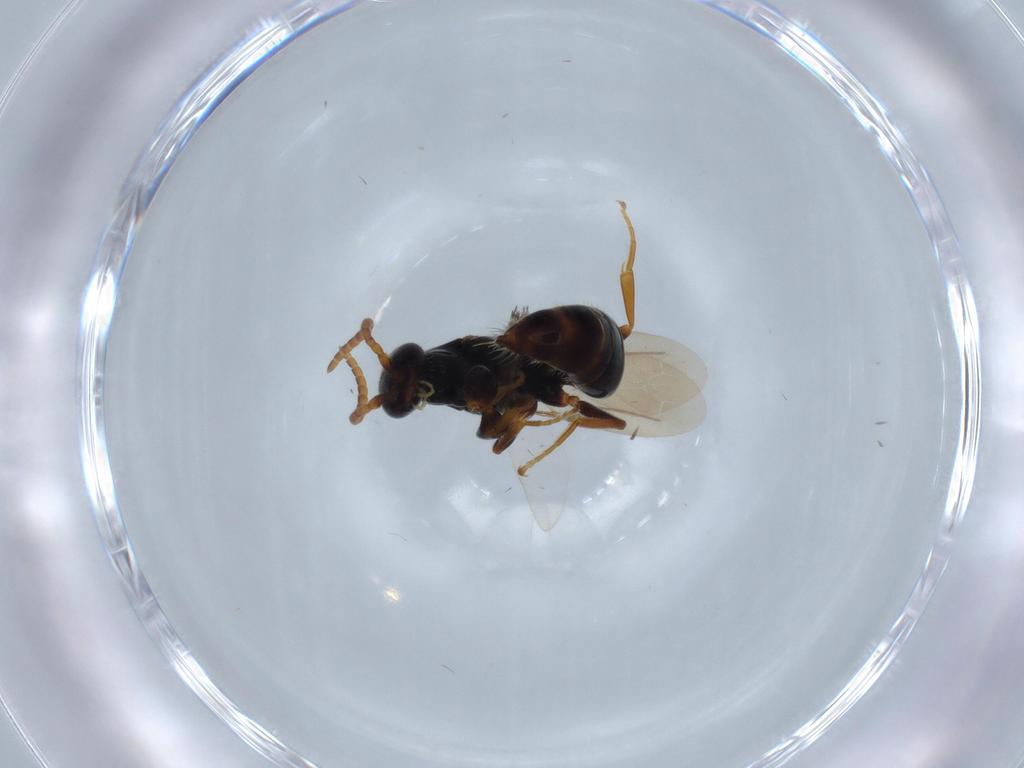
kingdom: Animalia
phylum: Arthropoda
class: Insecta
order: Hymenoptera
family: Bethylidae
